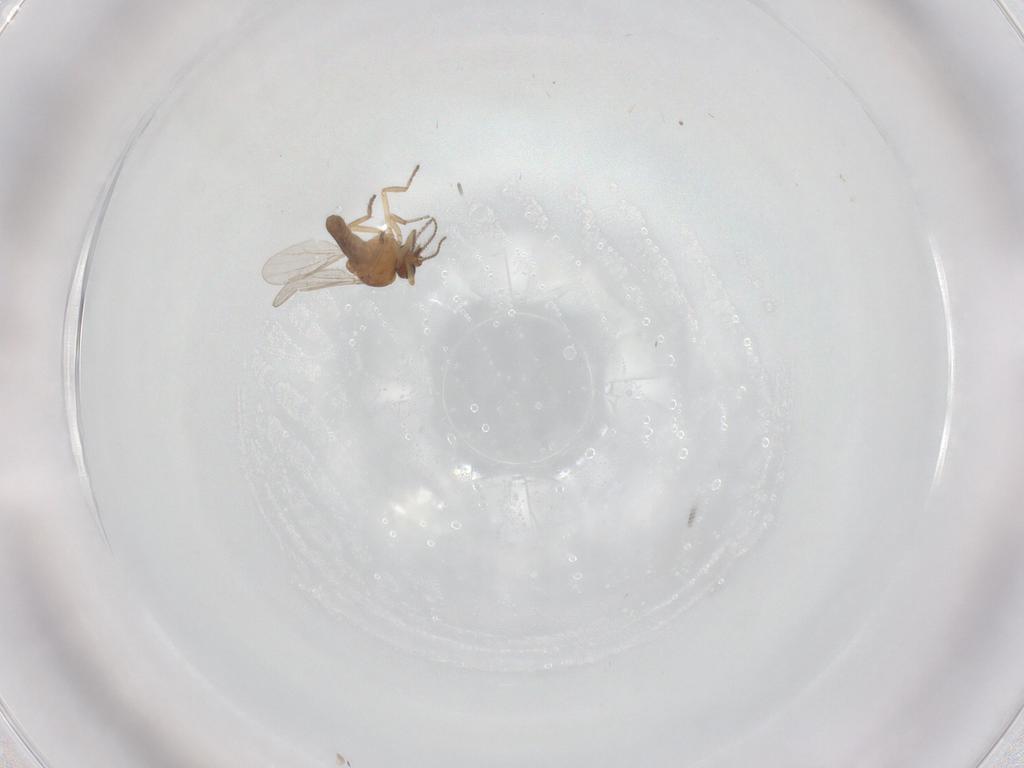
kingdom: Animalia
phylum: Arthropoda
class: Insecta
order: Diptera
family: Ceratopogonidae
